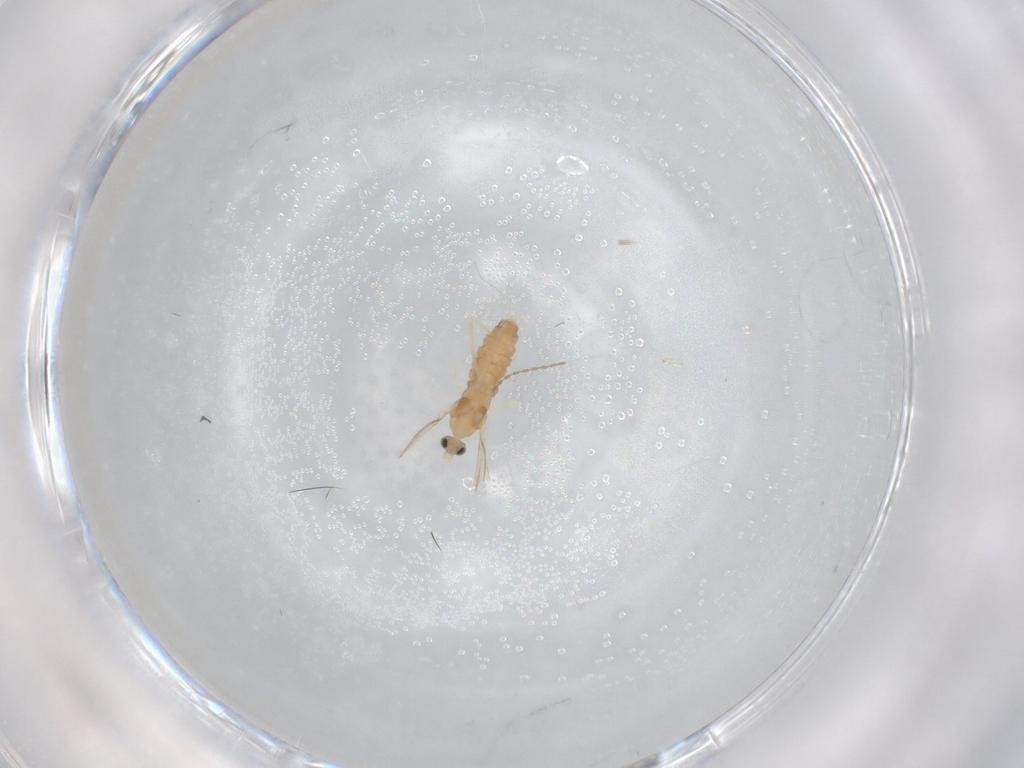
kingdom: Animalia
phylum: Arthropoda
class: Insecta
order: Diptera
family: Cecidomyiidae
